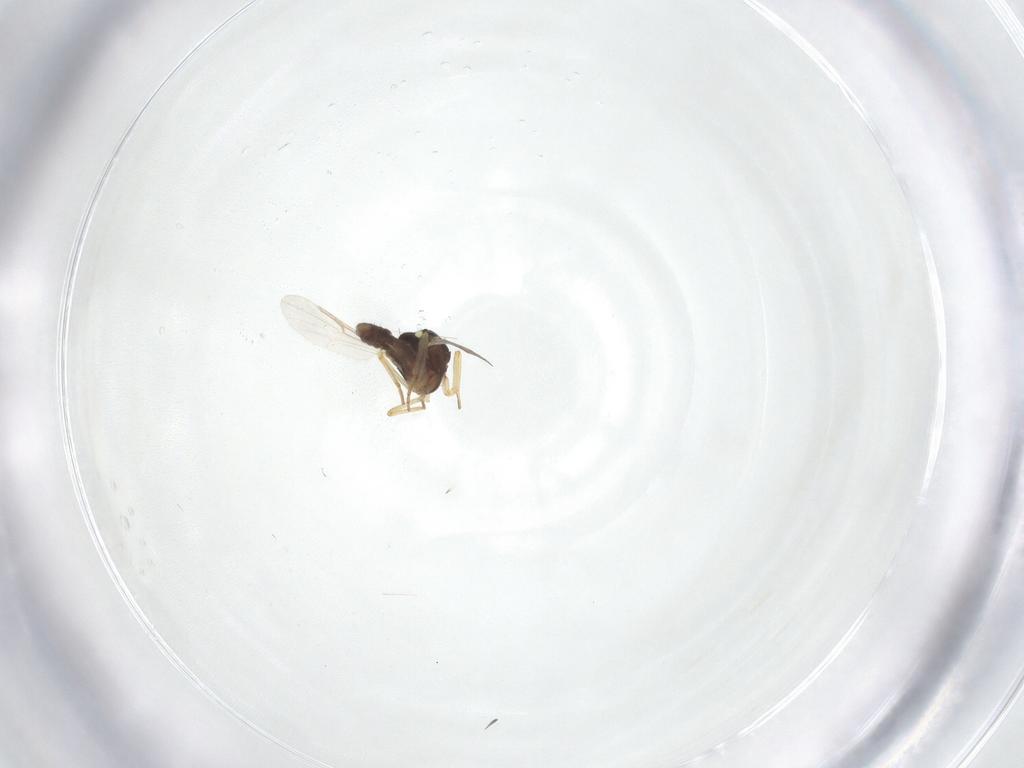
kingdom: Animalia
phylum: Arthropoda
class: Insecta
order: Diptera
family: Ceratopogonidae
